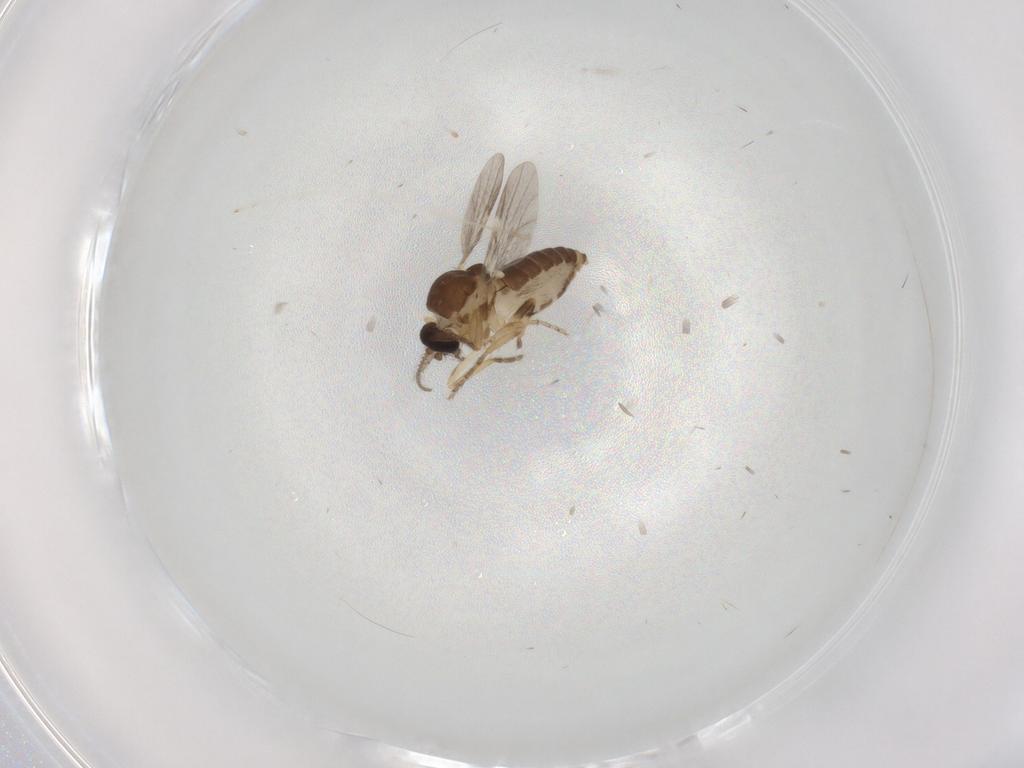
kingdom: Animalia
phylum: Arthropoda
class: Insecta
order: Diptera
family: Ceratopogonidae
